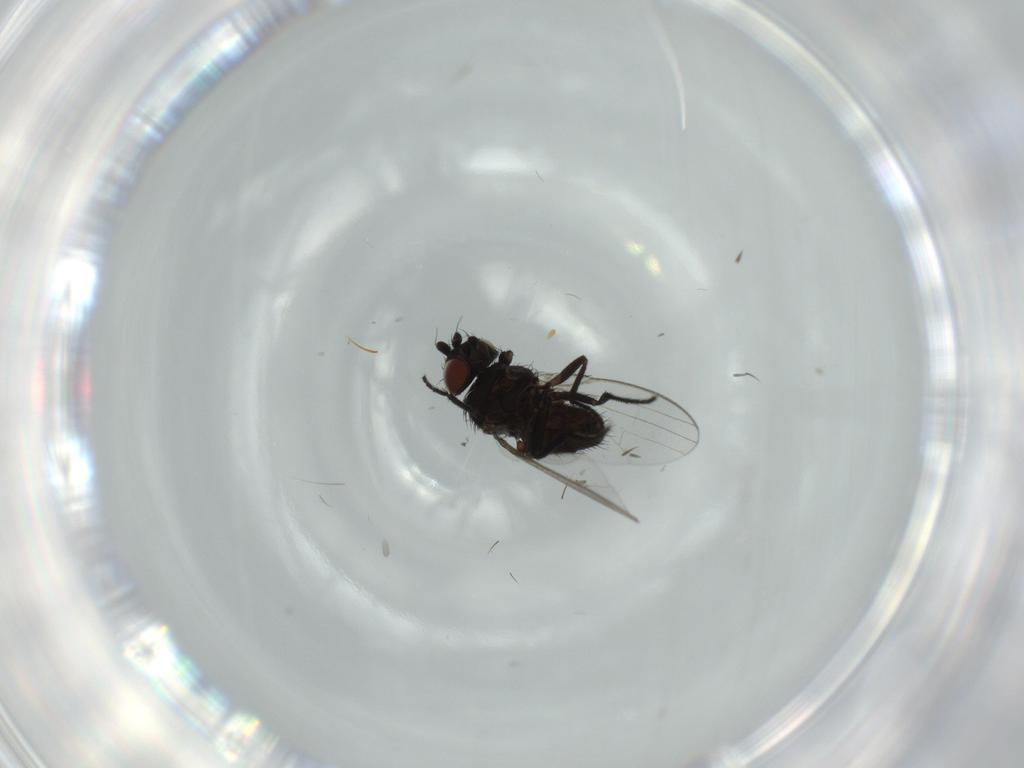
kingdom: Animalia
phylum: Arthropoda
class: Insecta
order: Diptera
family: Milichiidae
